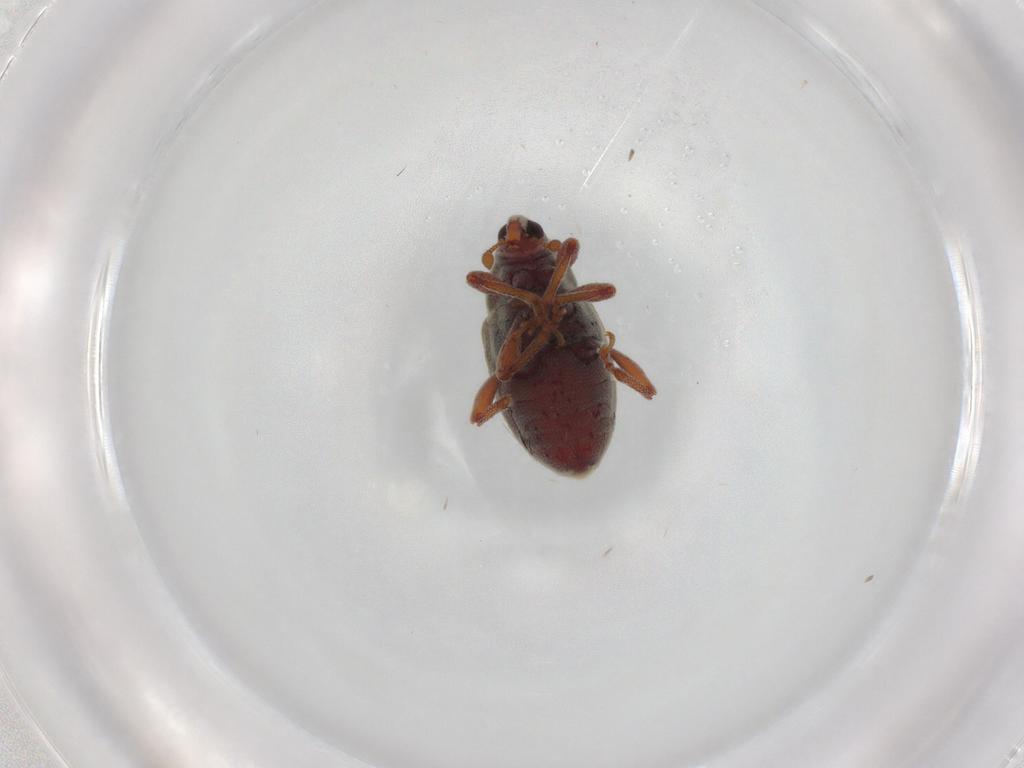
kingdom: Animalia
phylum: Arthropoda
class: Insecta
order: Coleoptera
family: Curculionidae
